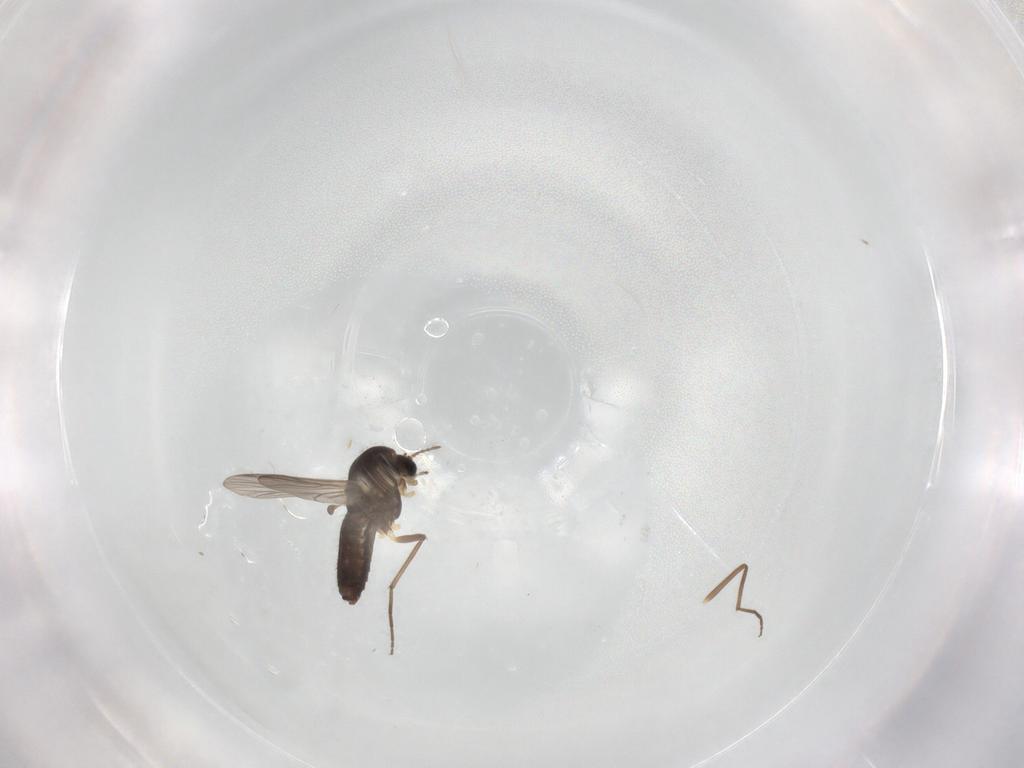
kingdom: Animalia
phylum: Arthropoda
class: Insecta
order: Diptera
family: Chironomidae
